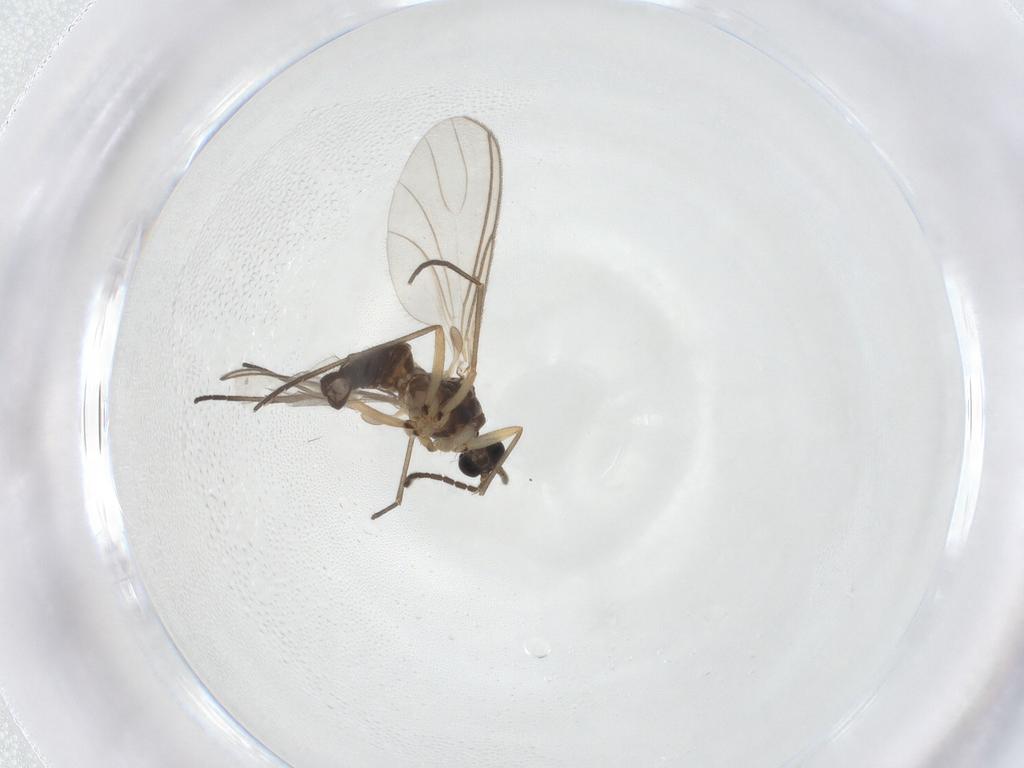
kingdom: Animalia
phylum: Arthropoda
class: Insecta
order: Diptera
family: Sciaridae
